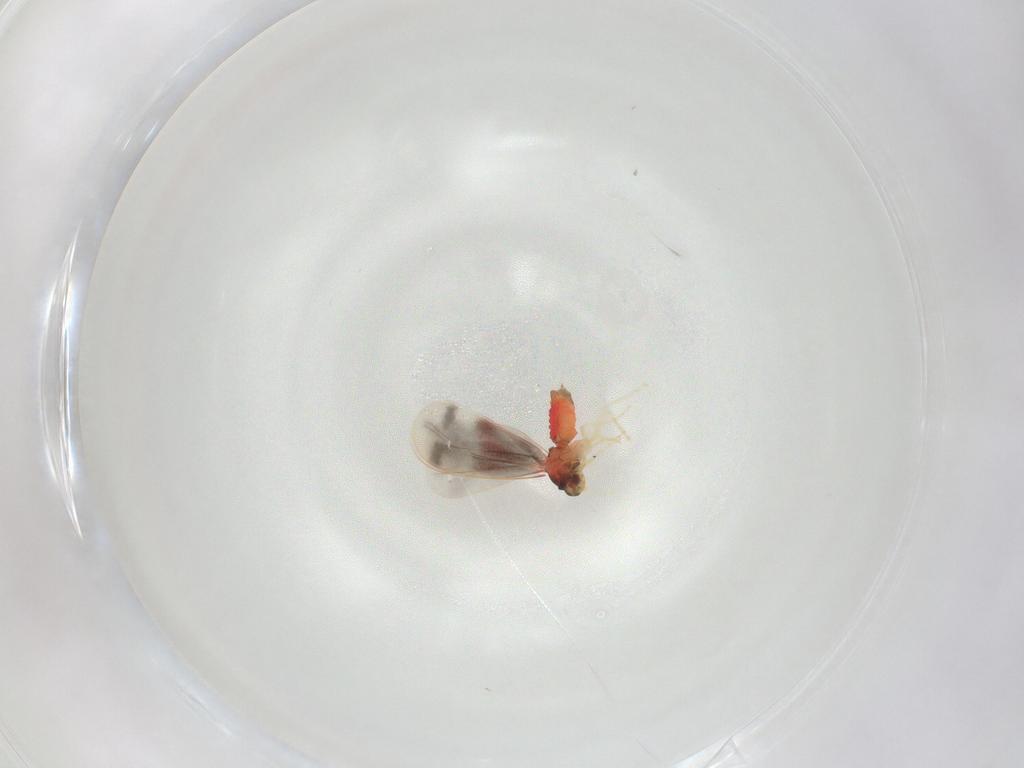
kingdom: Animalia
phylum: Arthropoda
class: Insecta
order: Hemiptera
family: Aleyrodidae
